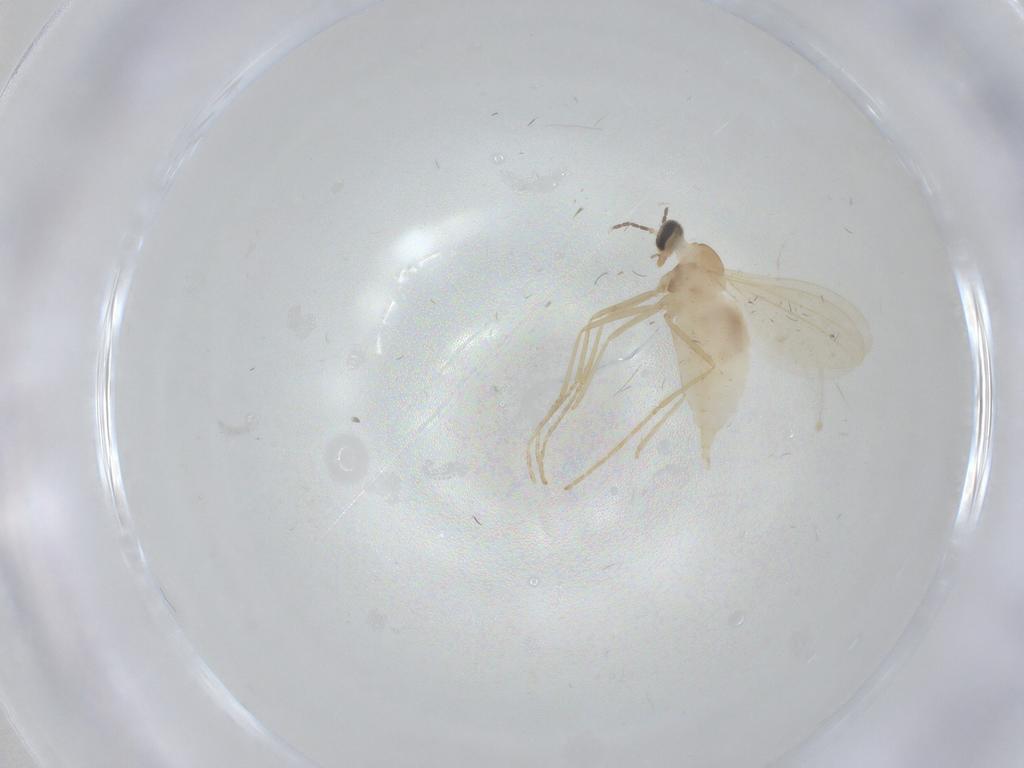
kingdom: Animalia
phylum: Arthropoda
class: Insecta
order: Diptera
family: Cecidomyiidae
